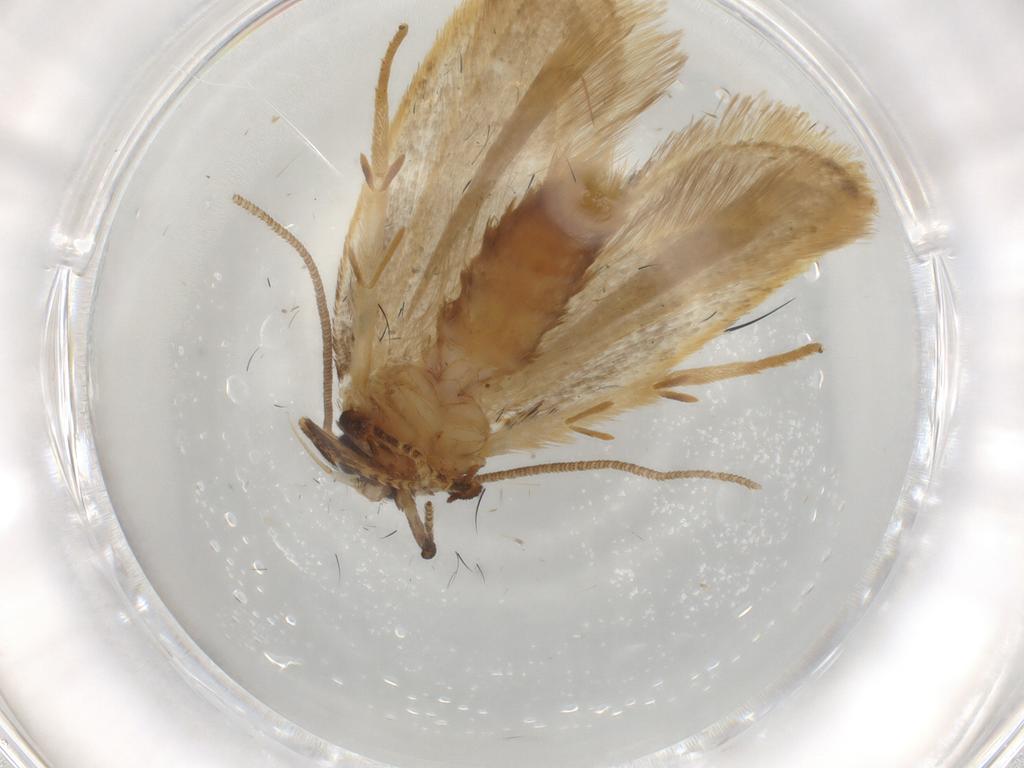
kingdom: Animalia
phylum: Arthropoda
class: Insecta
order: Lepidoptera
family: Depressariidae
